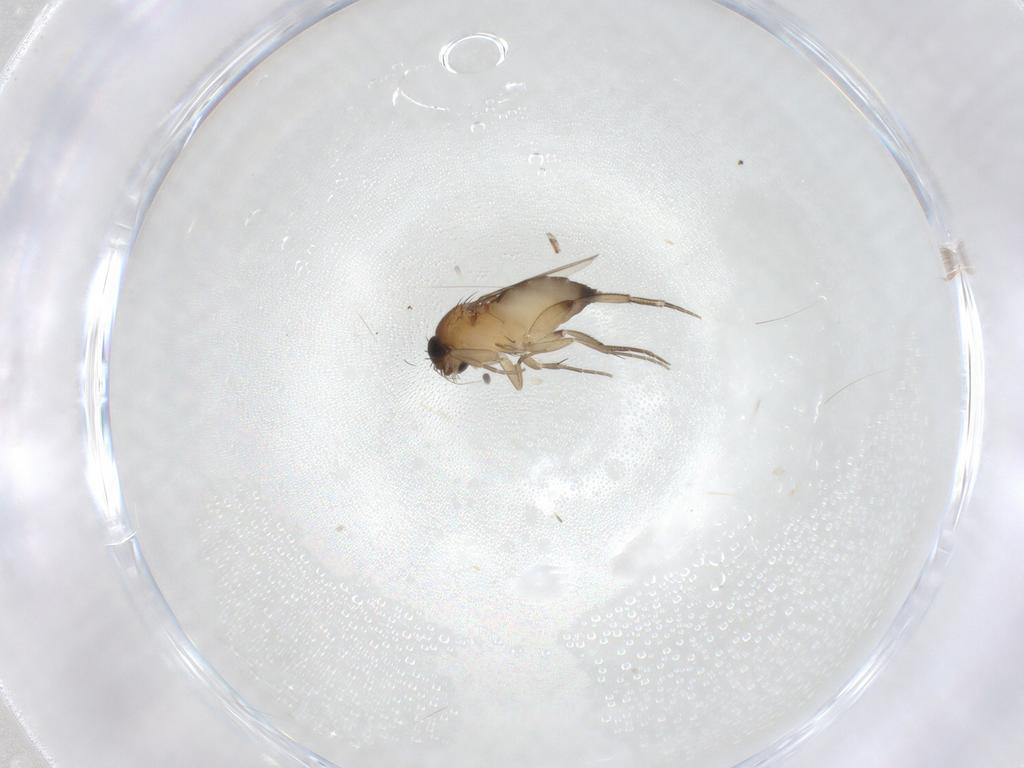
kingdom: Animalia
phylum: Arthropoda
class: Insecta
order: Diptera
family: Phoridae
